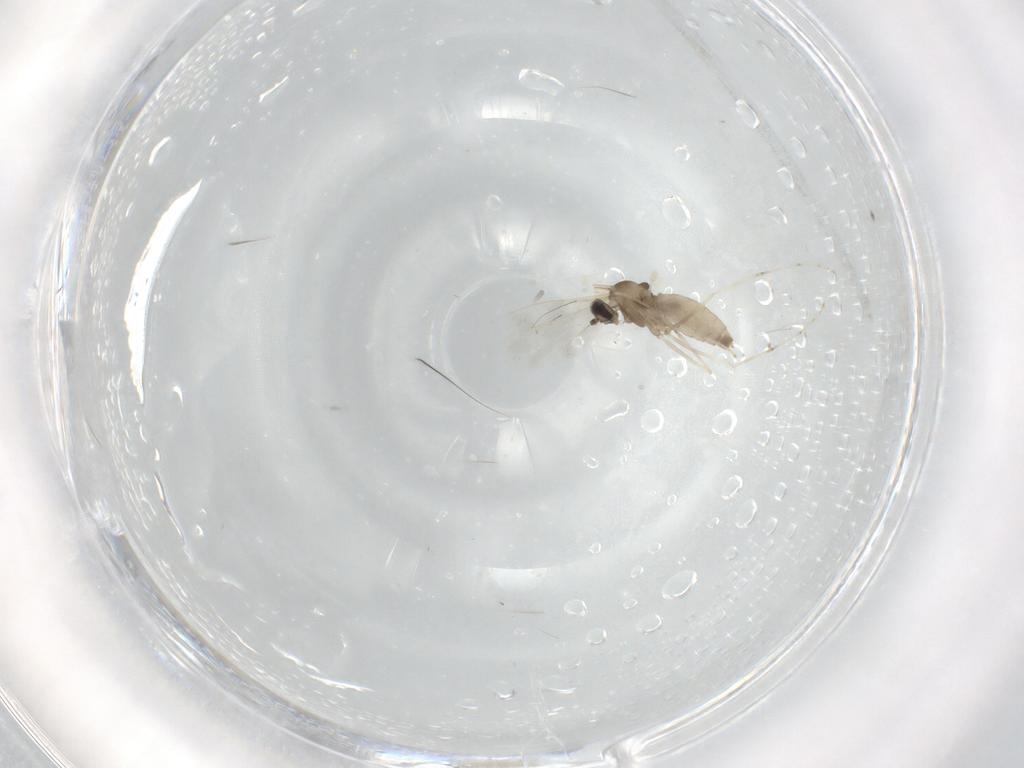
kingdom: Animalia
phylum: Arthropoda
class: Insecta
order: Diptera
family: Cecidomyiidae
